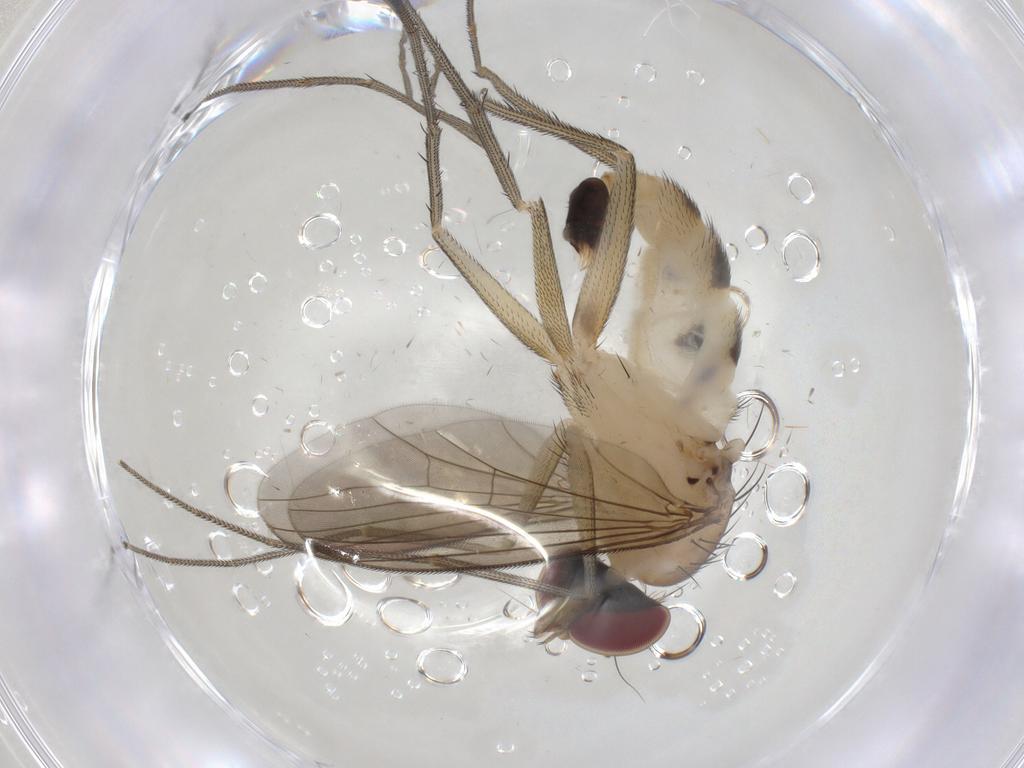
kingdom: Animalia
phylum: Arthropoda
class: Insecta
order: Diptera
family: Dolichopodidae
